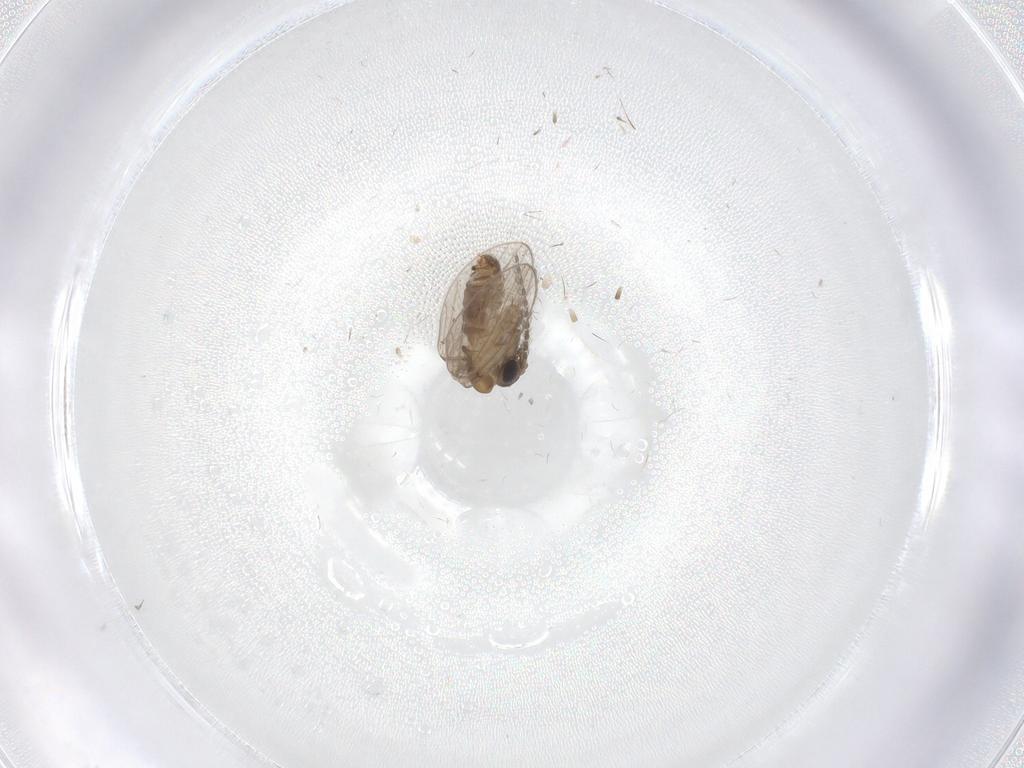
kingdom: Animalia
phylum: Arthropoda
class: Insecta
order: Diptera
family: Psychodidae
